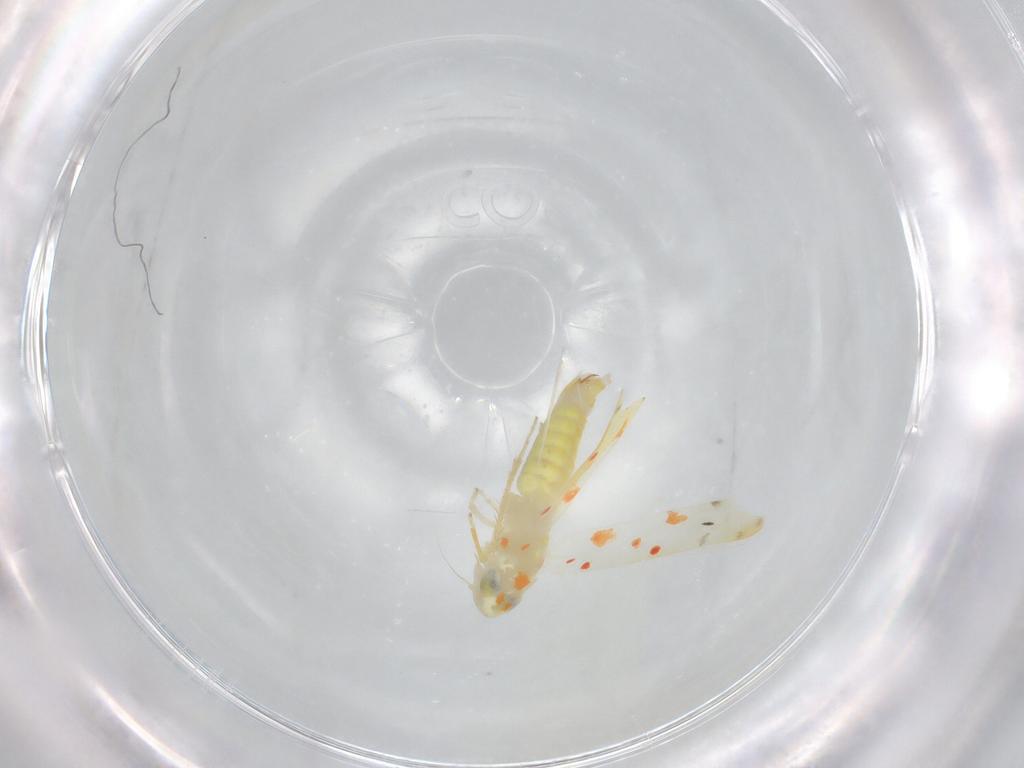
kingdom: Animalia
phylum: Arthropoda
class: Insecta
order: Hemiptera
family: Cicadellidae
